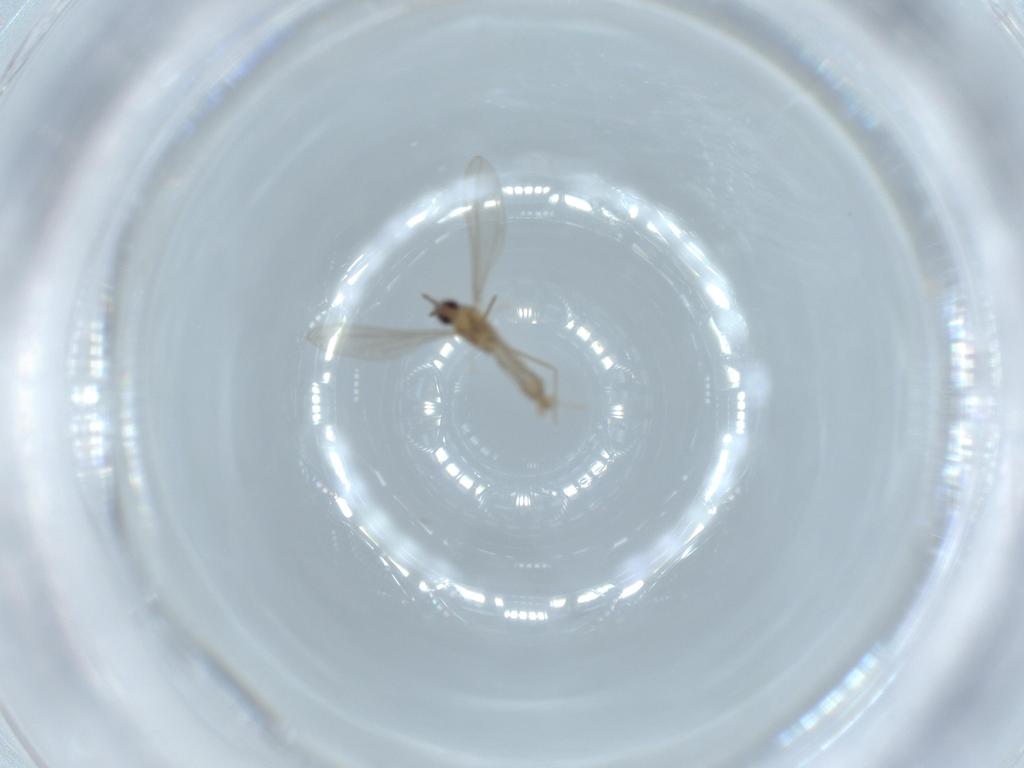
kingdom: Animalia
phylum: Arthropoda
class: Insecta
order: Diptera
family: Cecidomyiidae
